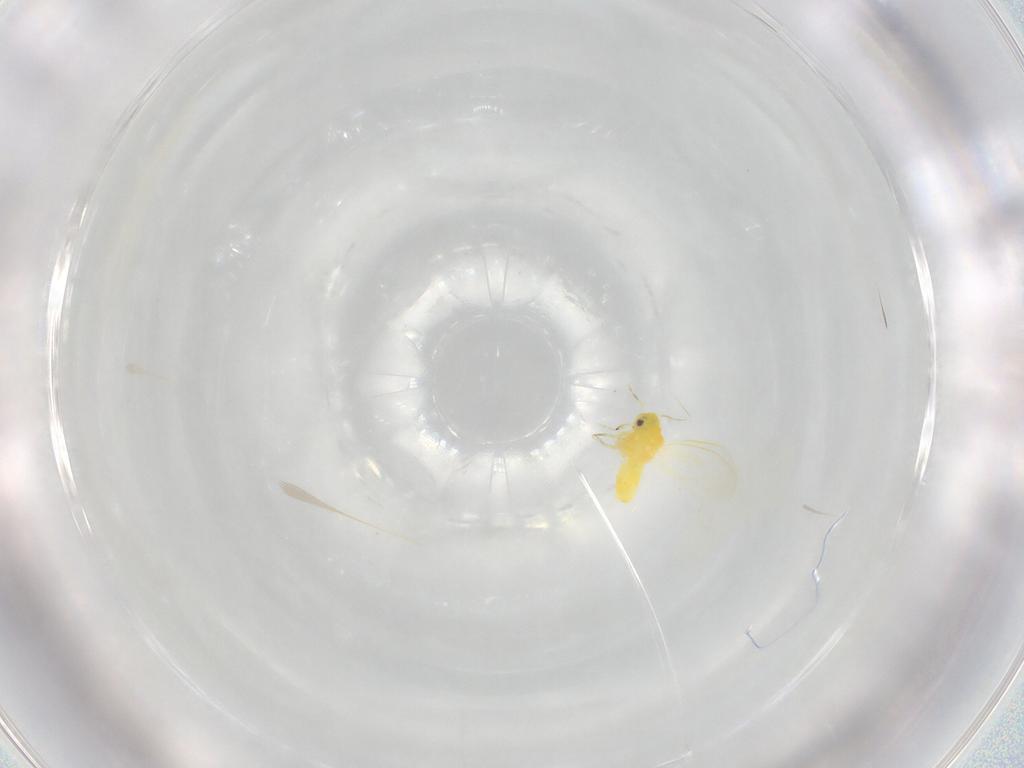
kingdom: Animalia
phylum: Arthropoda
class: Insecta
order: Hemiptera
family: Aleyrodidae
